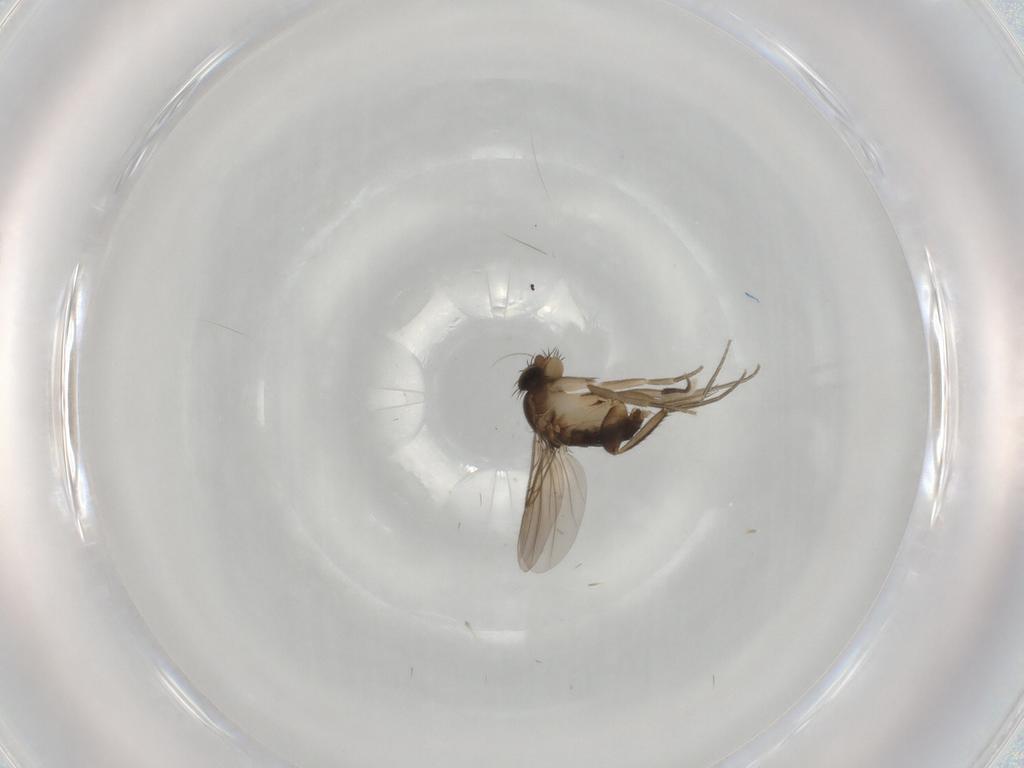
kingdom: Animalia
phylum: Arthropoda
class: Insecta
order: Diptera
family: Phoridae
